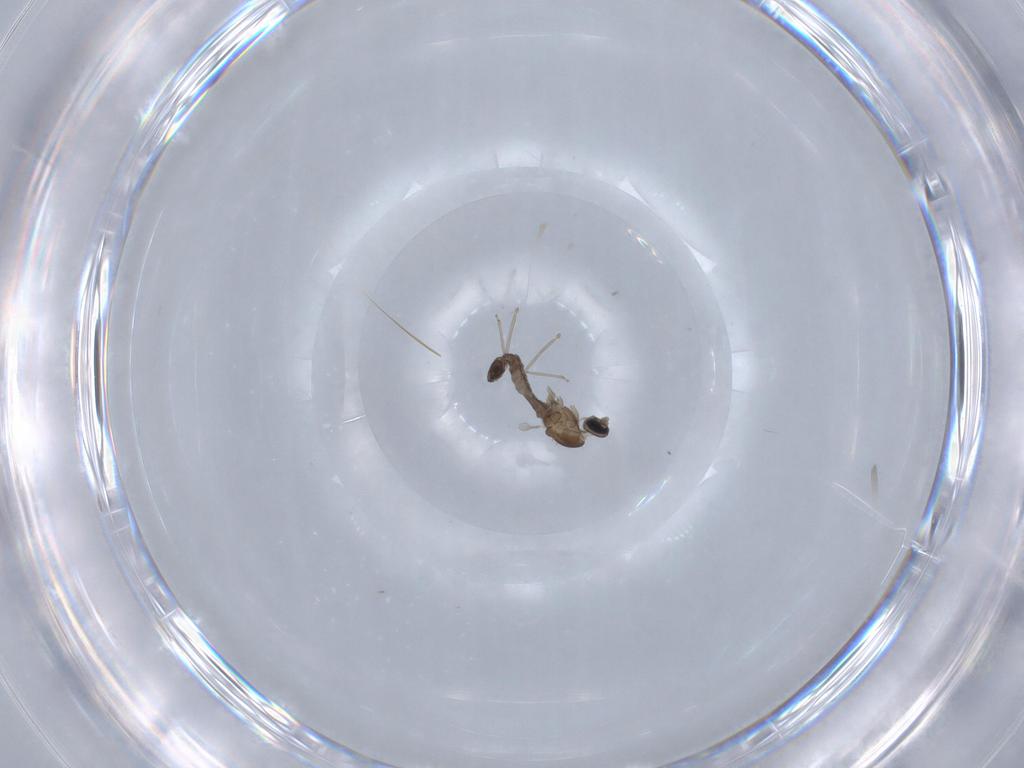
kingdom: Animalia
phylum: Arthropoda
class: Insecta
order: Diptera
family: Cecidomyiidae
